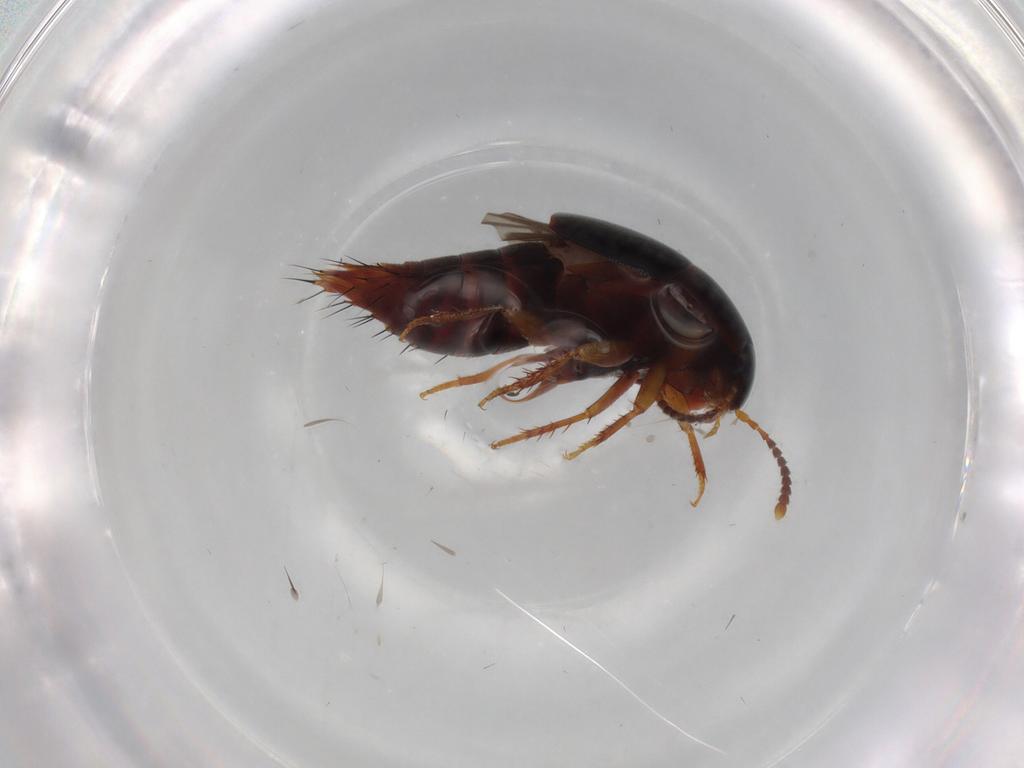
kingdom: Animalia
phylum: Arthropoda
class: Insecta
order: Coleoptera
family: Staphylinidae
